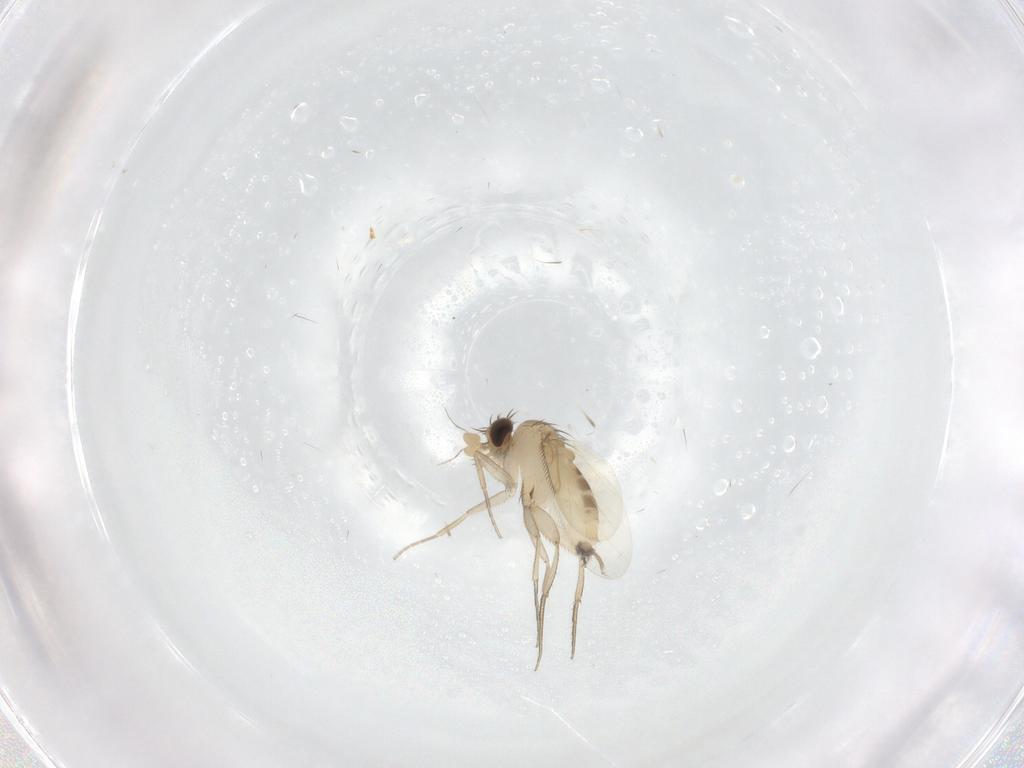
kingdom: Animalia
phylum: Arthropoda
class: Insecta
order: Diptera
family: Phoridae
